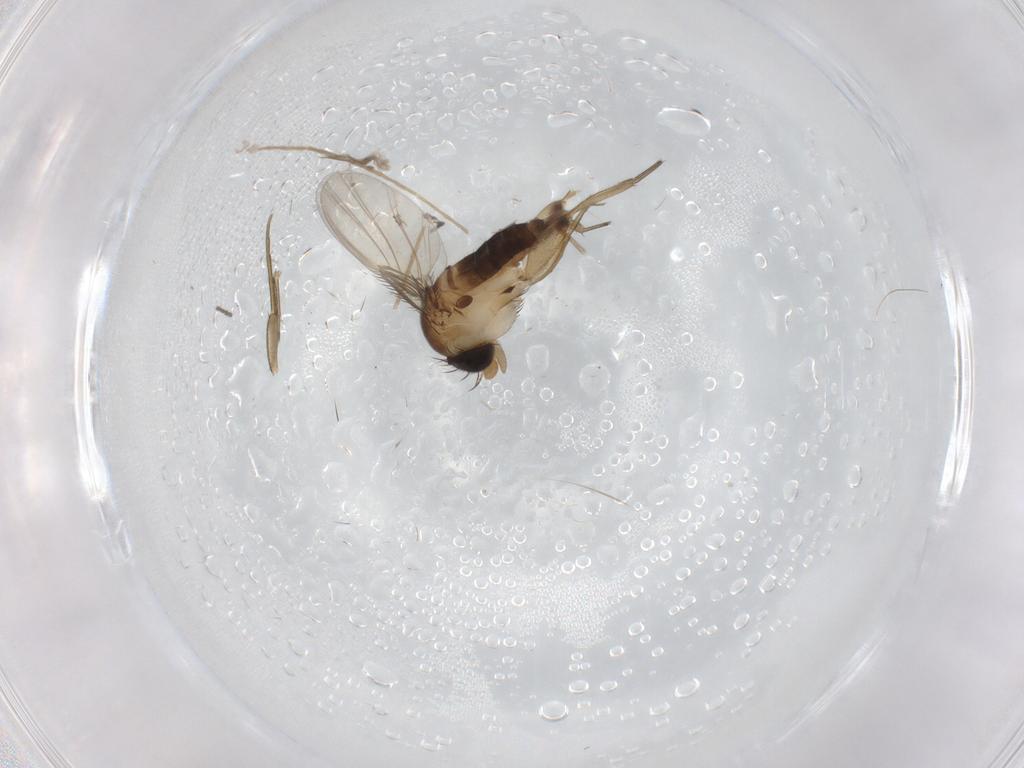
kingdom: Animalia
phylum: Arthropoda
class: Insecta
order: Diptera
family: Phoridae
